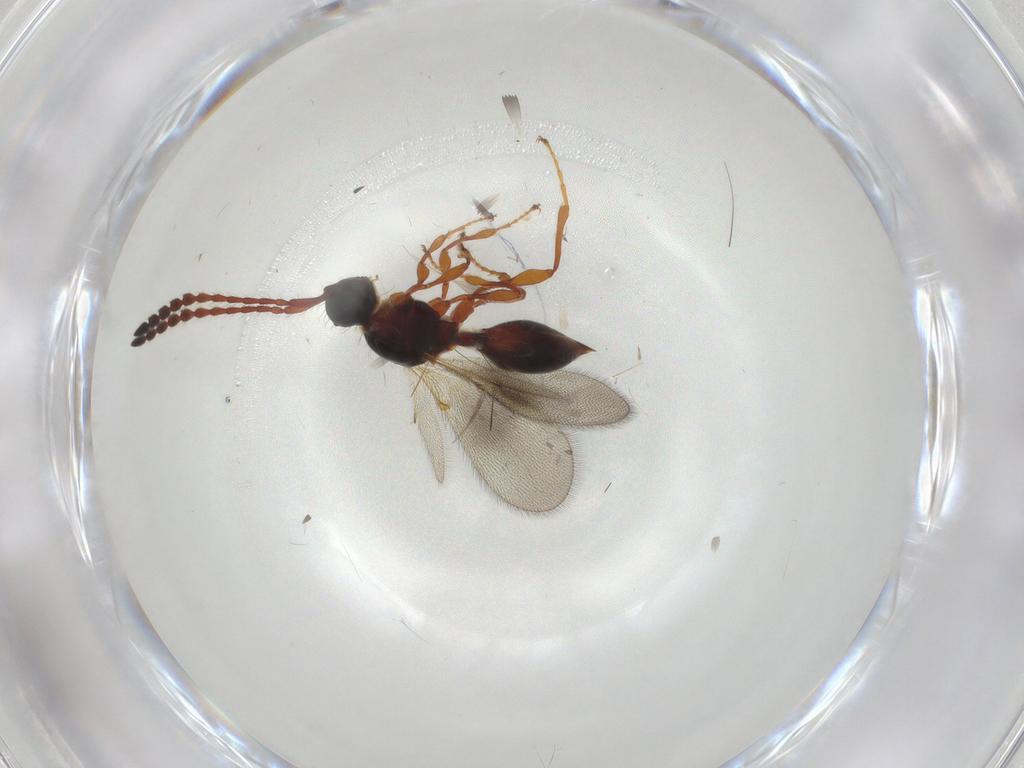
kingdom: Animalia
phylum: Arthropoda
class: Insecta
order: Hymenoptera
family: Diapriidae
